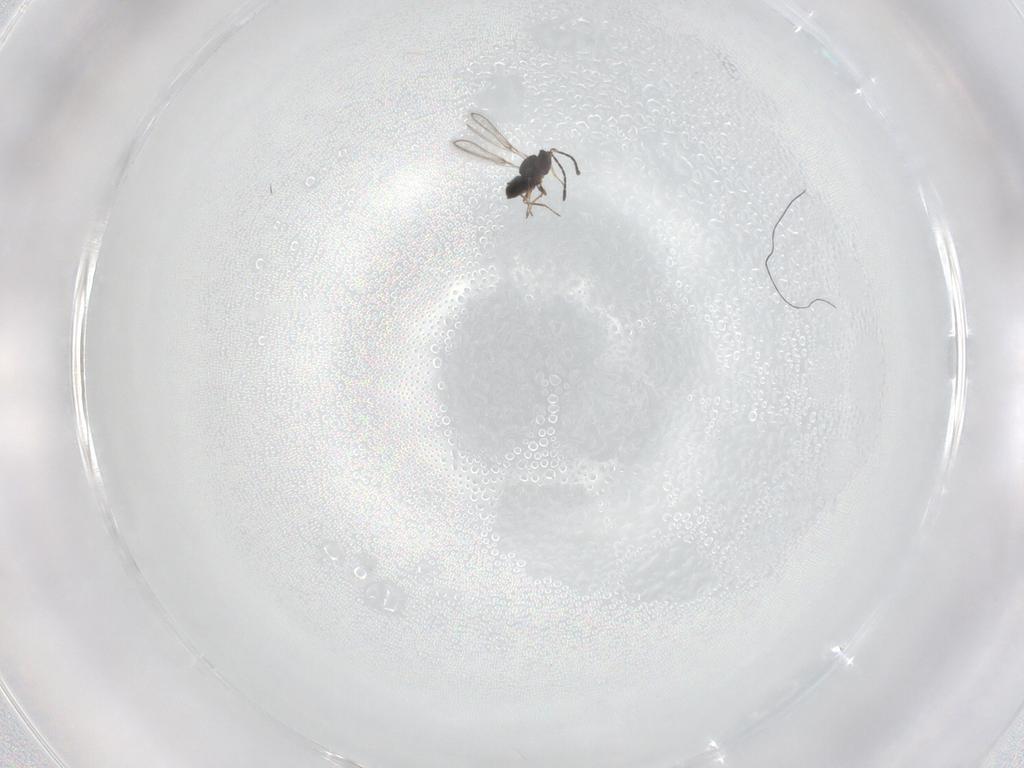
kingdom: Animalia
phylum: Arthropoda
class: Insecta
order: Hymenoptera
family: Mymaridae
